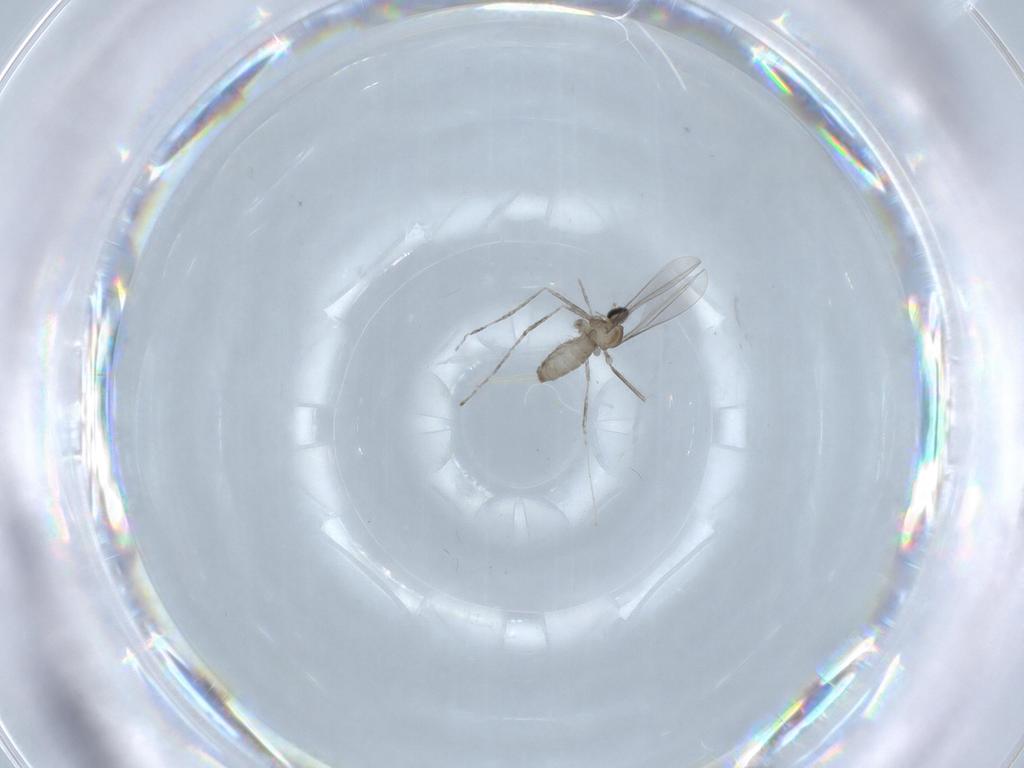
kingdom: Animalia
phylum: Arthropoda
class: Insecta
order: Diptera
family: Cecidomyiidae
